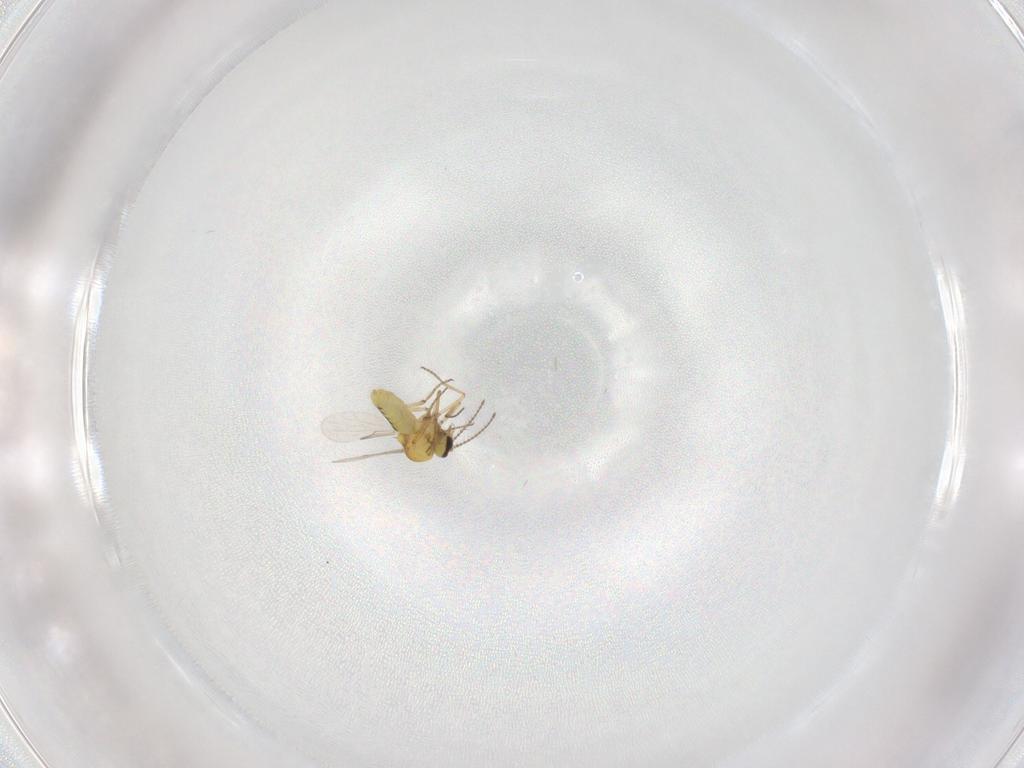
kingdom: Animalia
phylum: Arthropoda
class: Insecta
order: Diptera
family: Ceratopogonidae
